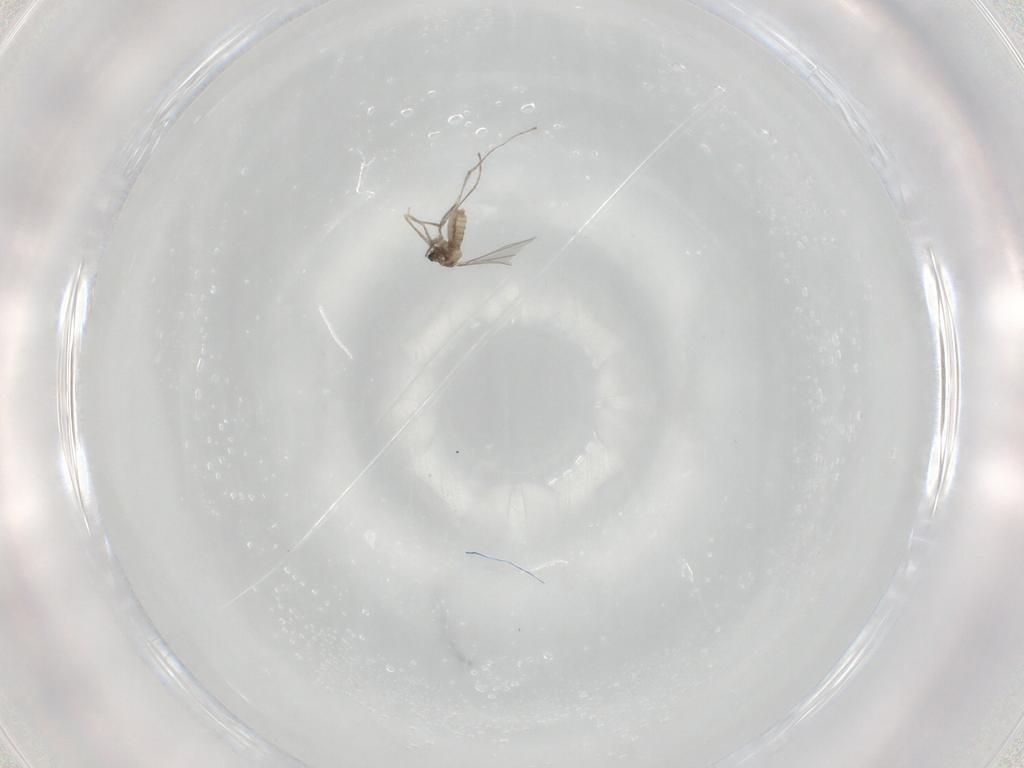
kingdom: Animalia
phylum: Arthropoda
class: Insecta
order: Diptera
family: Cecidomyiidae
